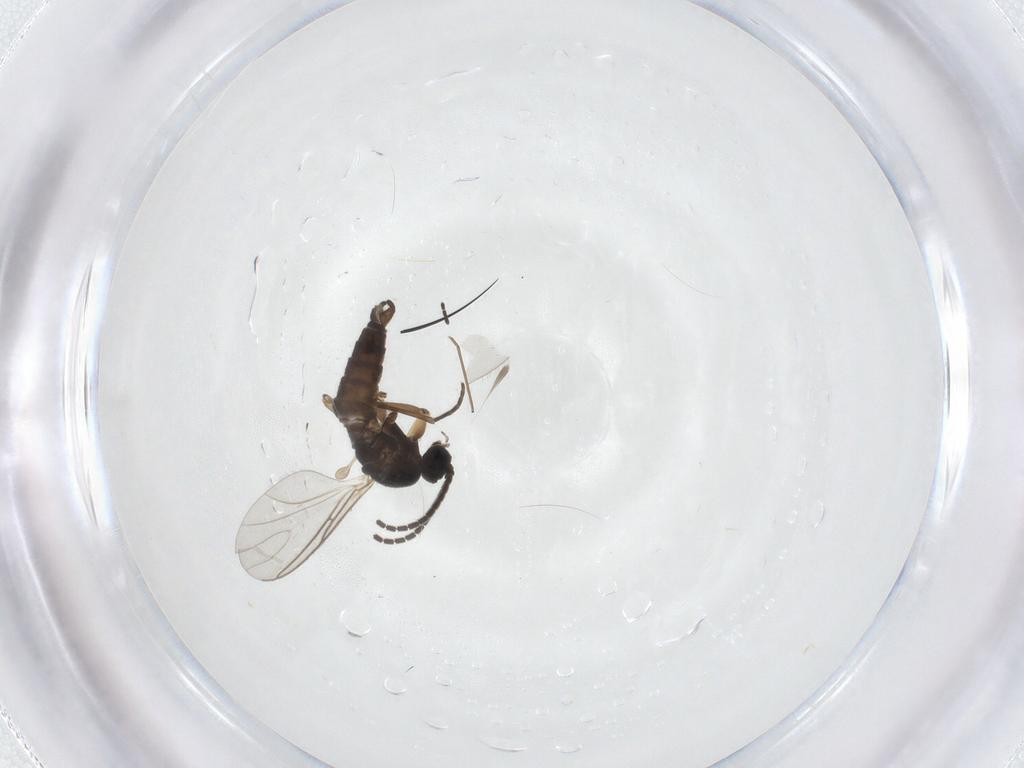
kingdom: Animalia
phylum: Arthropoda
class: Insecta
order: Diptera
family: Sciaridae
